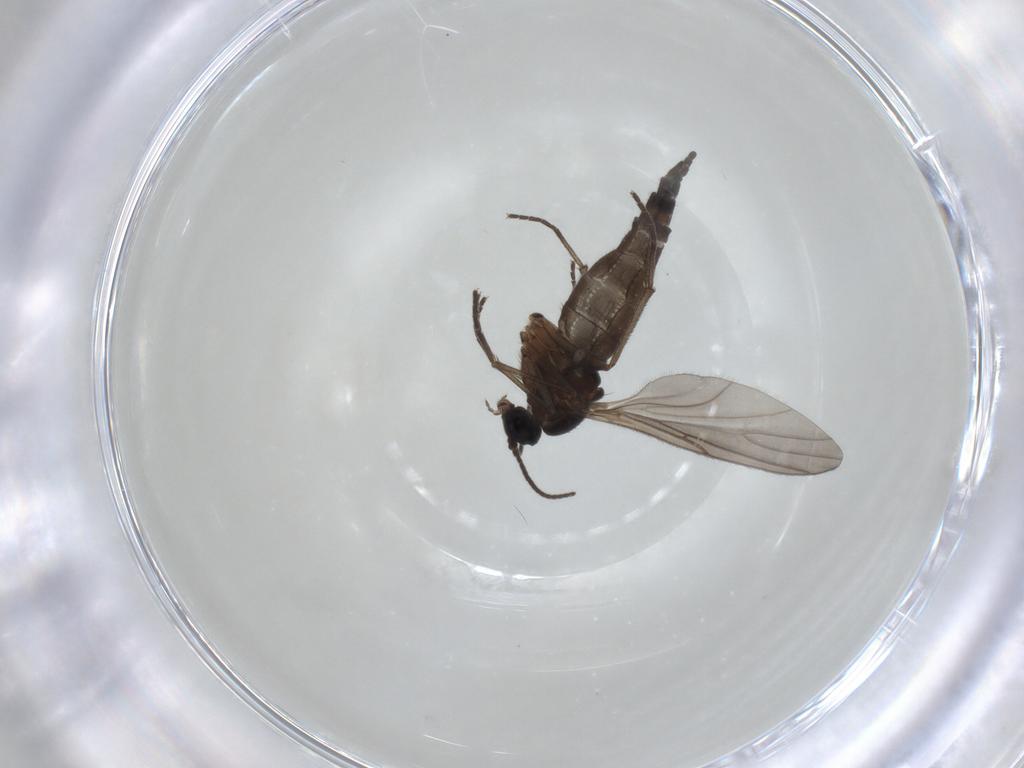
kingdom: Animalia
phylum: Arthropoda
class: Insecta
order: Diptera
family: Sciaridae
